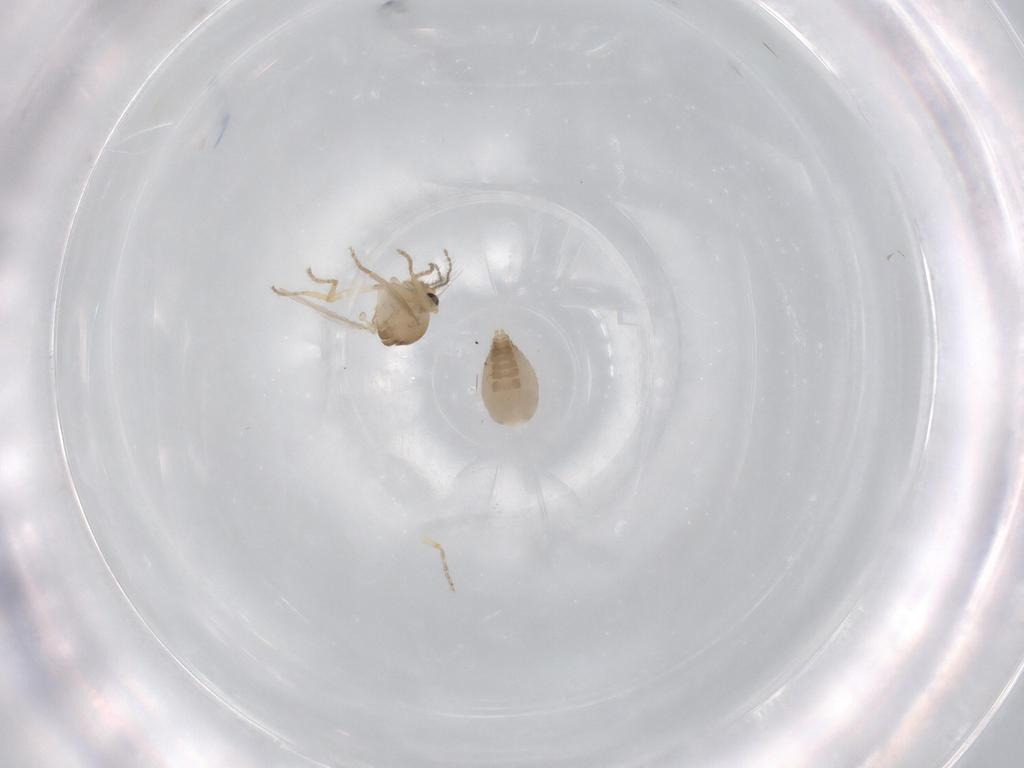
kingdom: Animalia
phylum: Arthropoda
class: Insecta
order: Diptera
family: Ceratopogonidae
